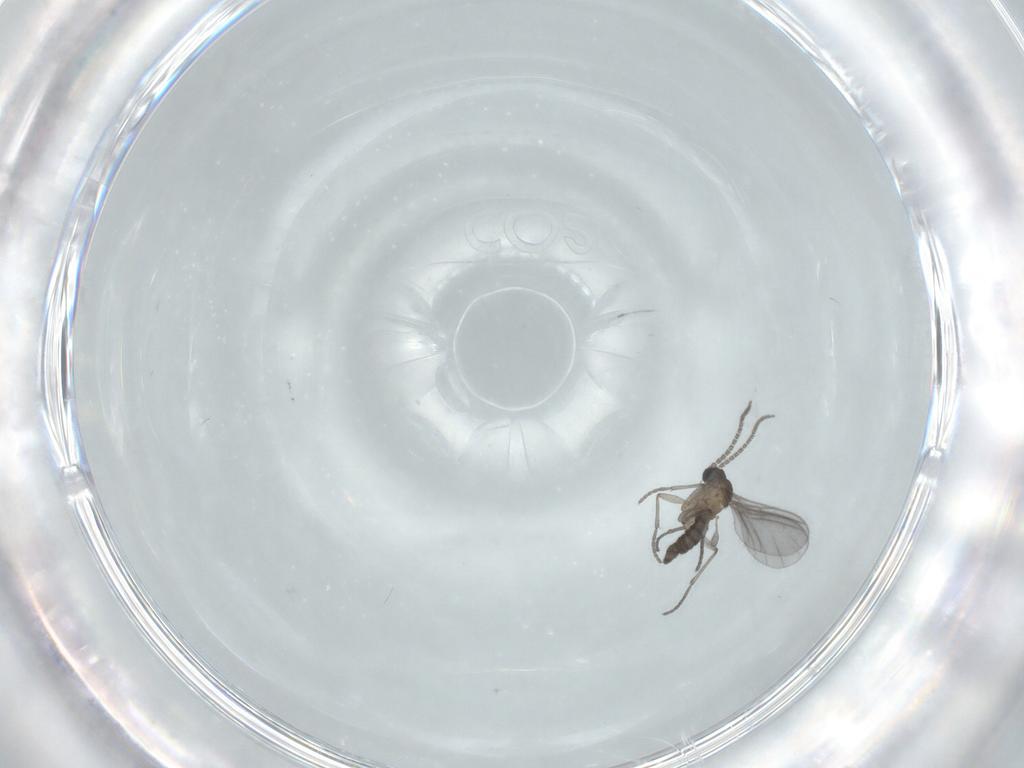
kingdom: Animalia
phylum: Arthropoda
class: Insecta
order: Diptera
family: Sciaridae
